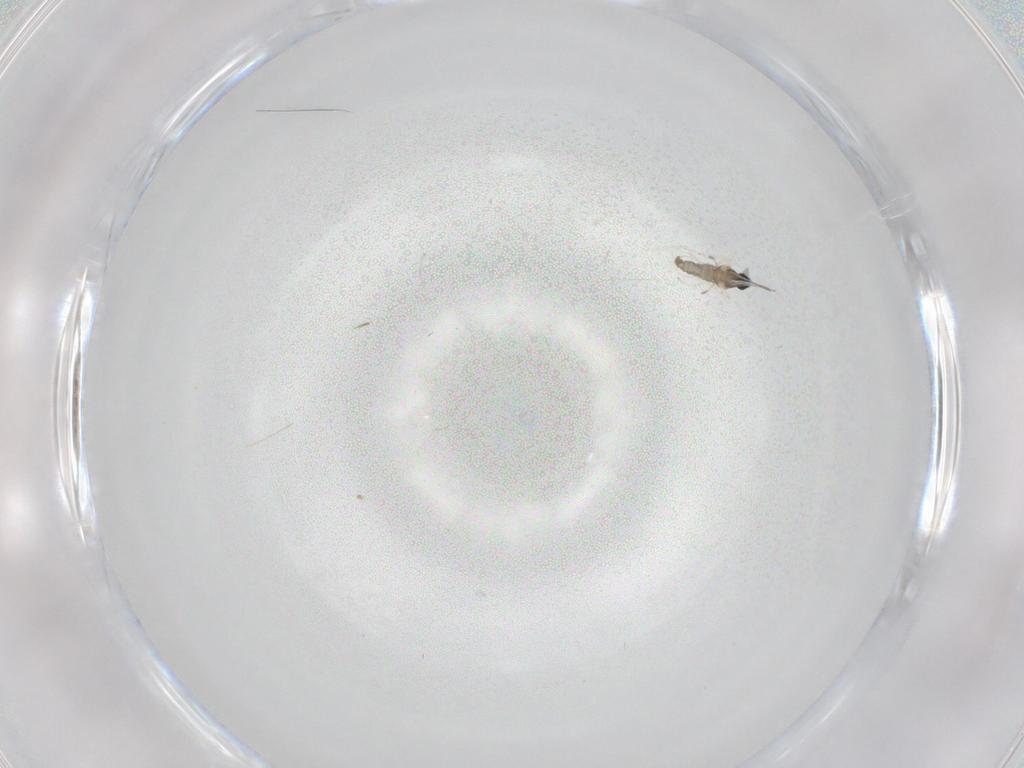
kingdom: Animalia
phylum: Arthropoda
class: Insecta
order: Diptera
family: Cecidomyiidae
